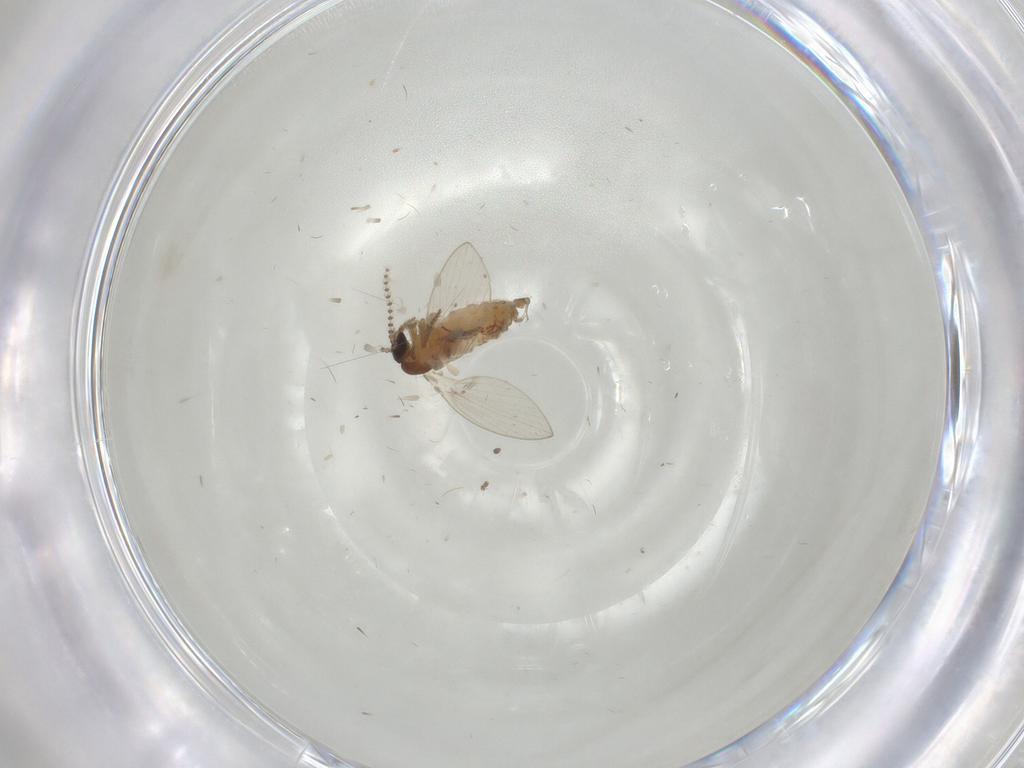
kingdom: Animalia
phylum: Arthropoda
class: Insecta
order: Diptera
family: Psychodidae
